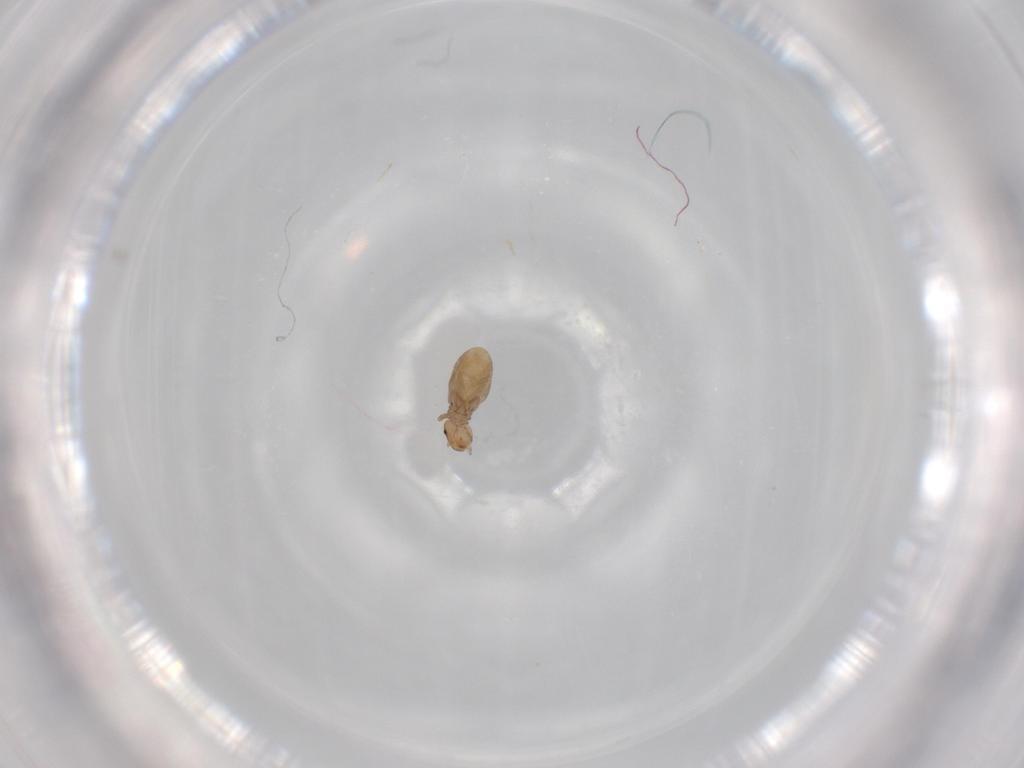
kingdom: Animalia
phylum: Arthropoda
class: Insecta
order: Psocodea
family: Liposcelididae
